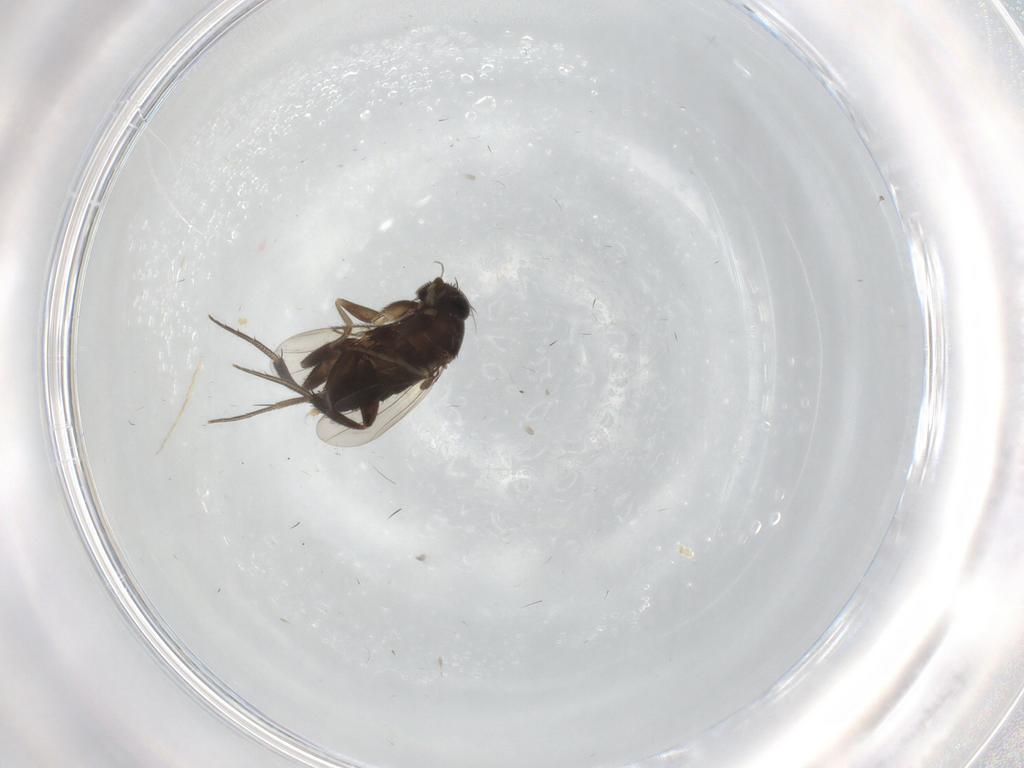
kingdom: Animalia
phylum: Arthropoda
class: Insecta
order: Diptera
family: Phoridae
